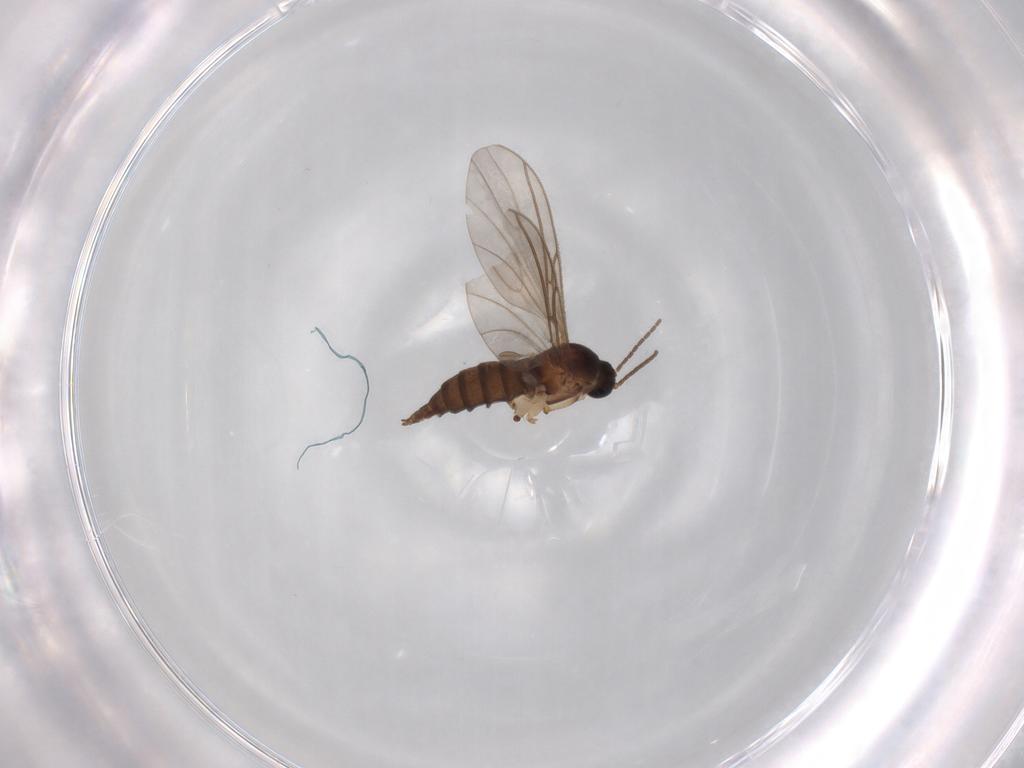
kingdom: Animalia
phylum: Arthropoda
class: Insecta
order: Diptera
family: Sciaridae
